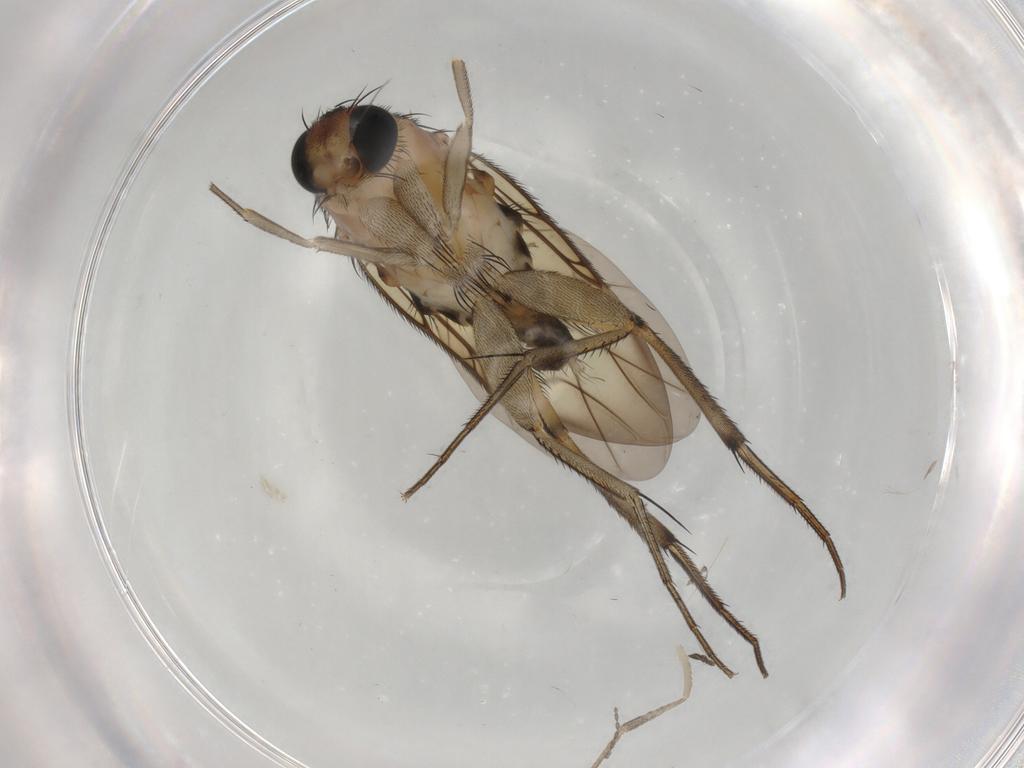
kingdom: Animalia
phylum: Arthropoda
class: Insecta
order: Diptera
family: Phoridae
